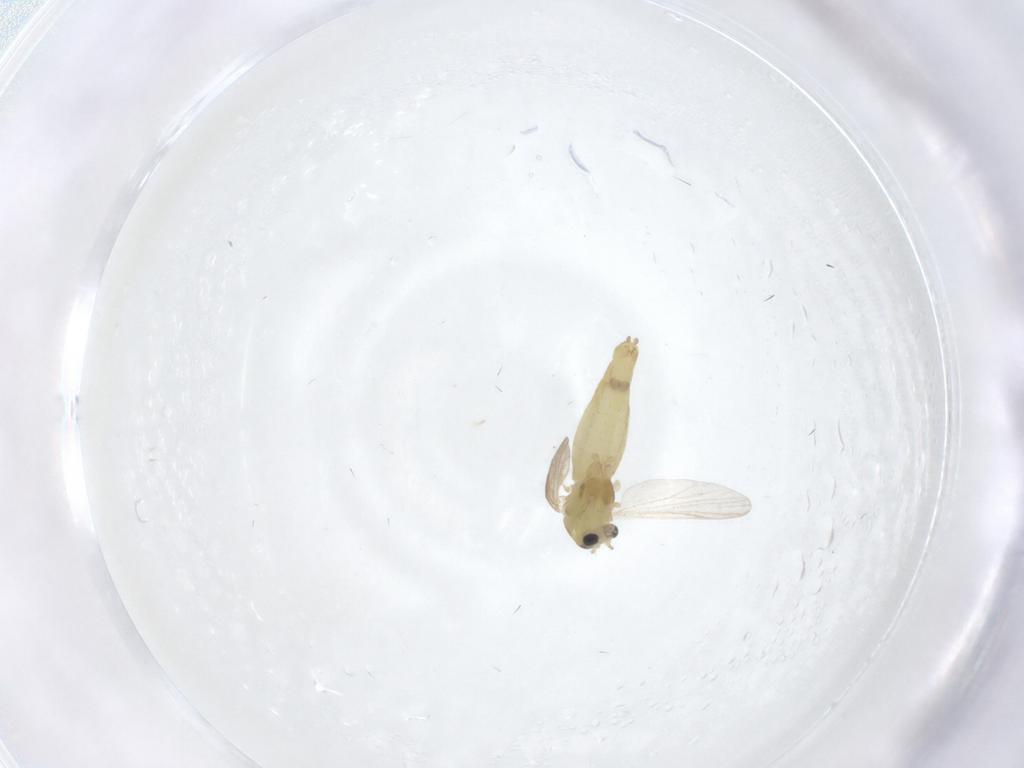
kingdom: Animalia
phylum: Arthropoda
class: Insecta
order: Diptera
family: Chironomidae
